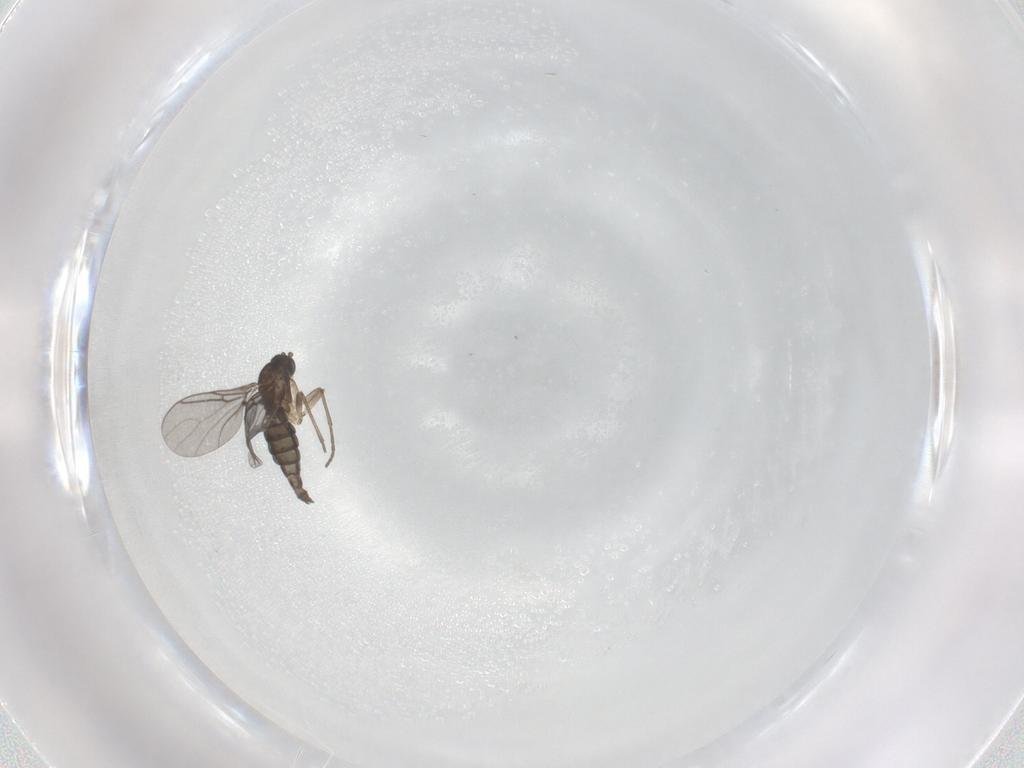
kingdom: Animalia
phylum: Arthropoda
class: Insecta
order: Diptera
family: Sciaridae
